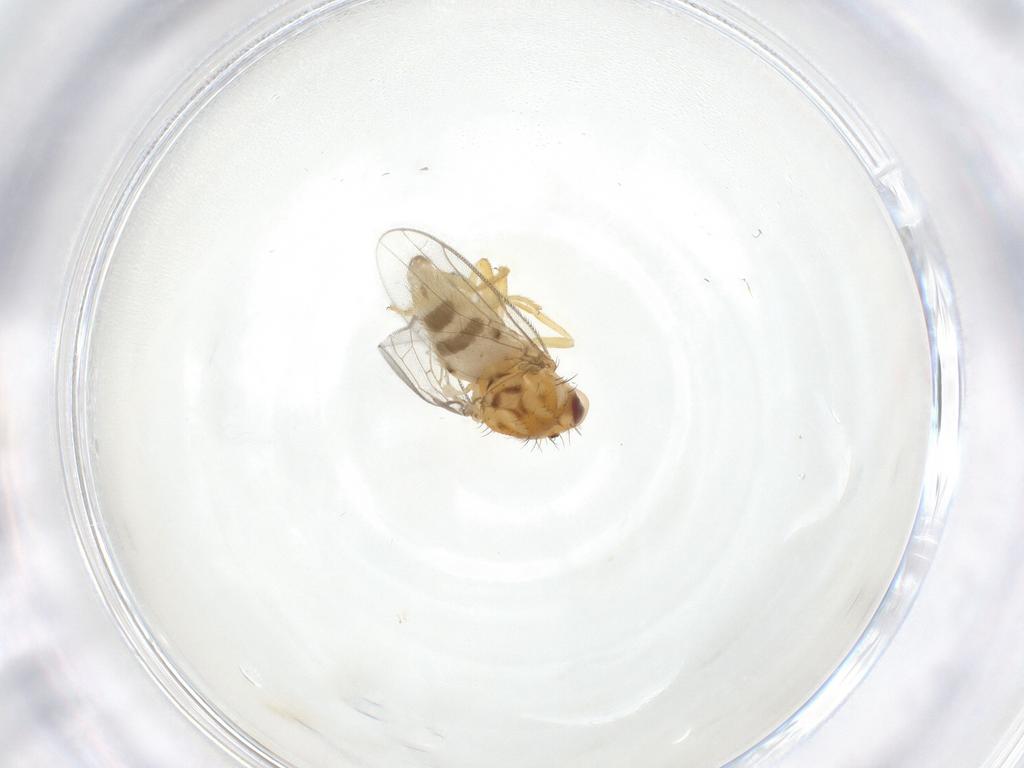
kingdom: Animalia
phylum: Arthropoda
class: Insecta
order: Diptera
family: Chloropidae
